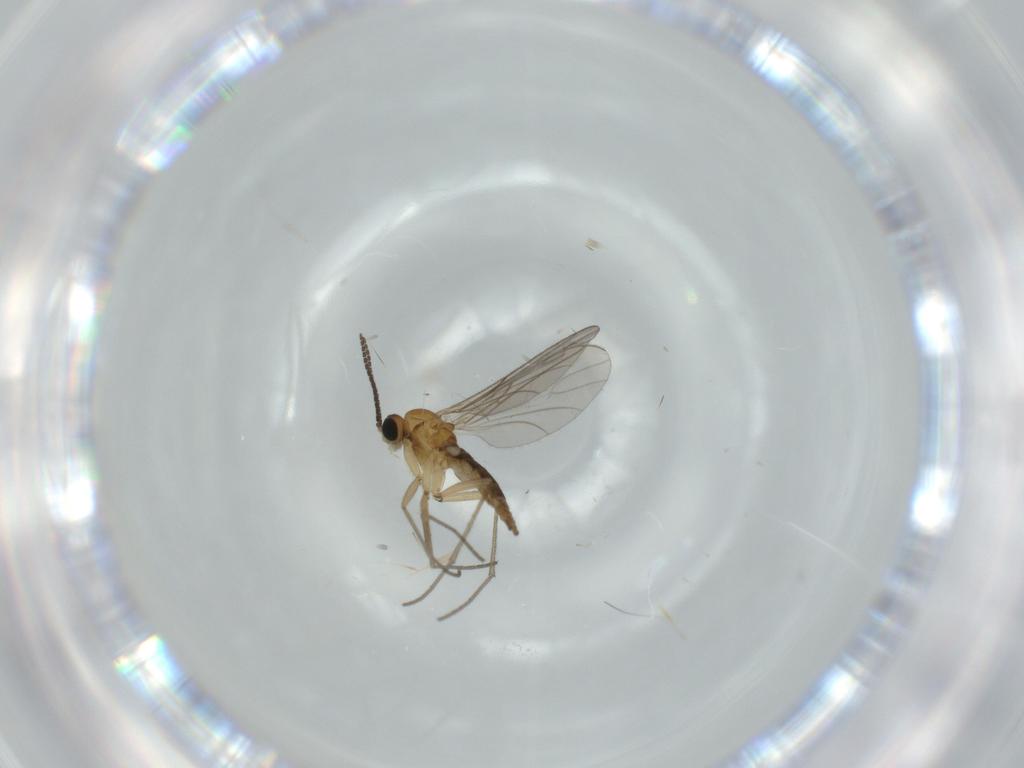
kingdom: Animalia
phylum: Arthropoda
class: Insecta
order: Diptera
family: Sciaridae
